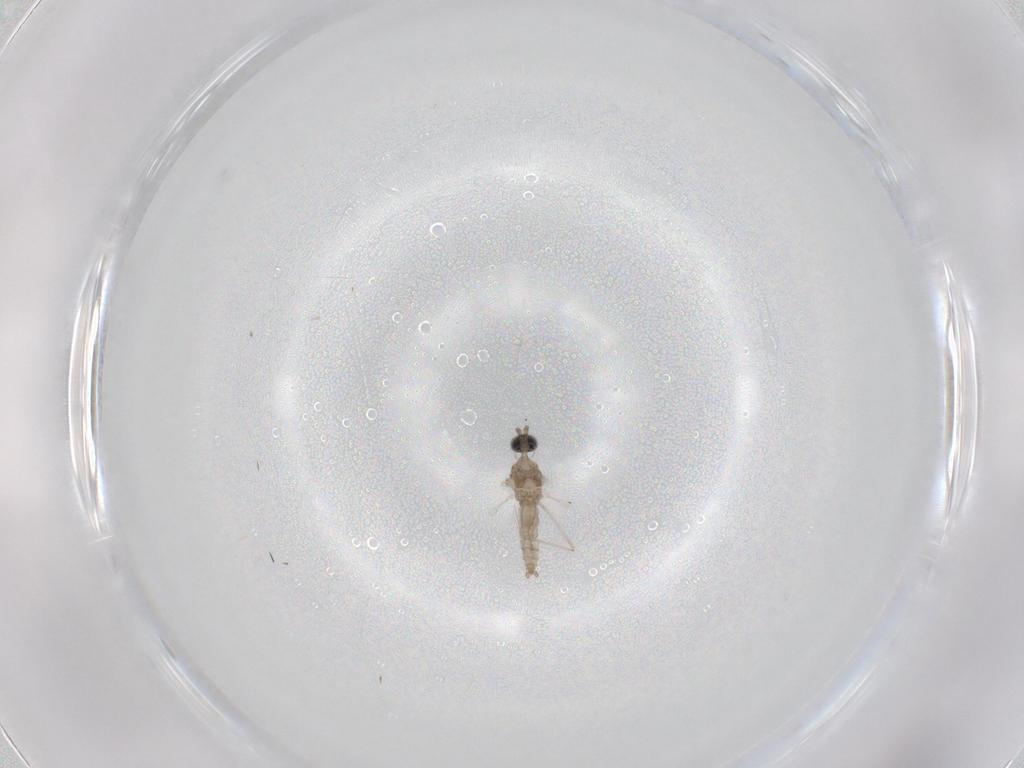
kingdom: Animalia
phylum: Arthropoda
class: Insecta
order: Diptera
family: Cecidomyiidae
